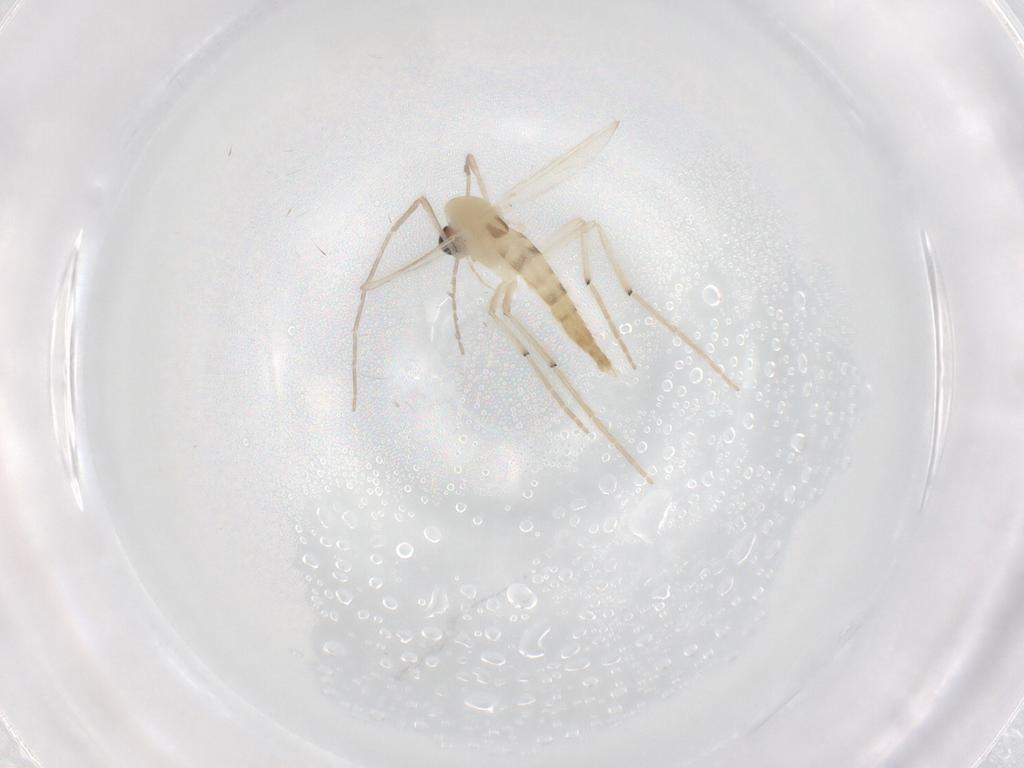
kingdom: Animalia
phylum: Arthropoda
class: Insecta
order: Diptera
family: Chironomidae
